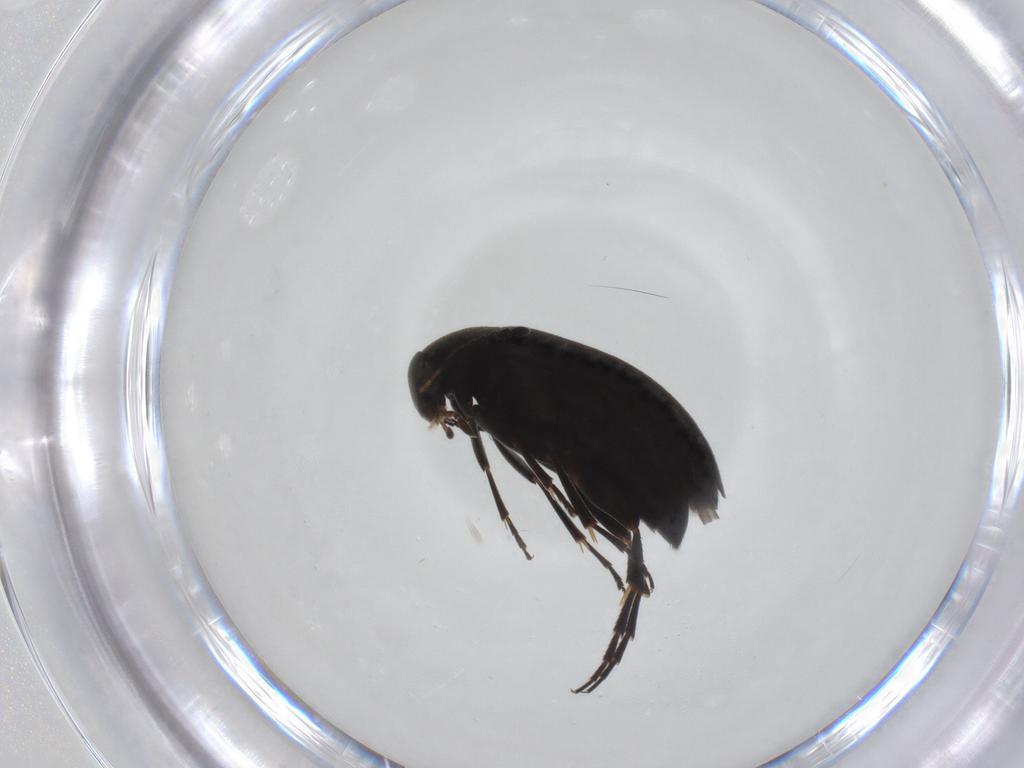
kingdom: Animalia
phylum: Arthropoda
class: Insecta
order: Coleoptera
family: Scraptiidae
